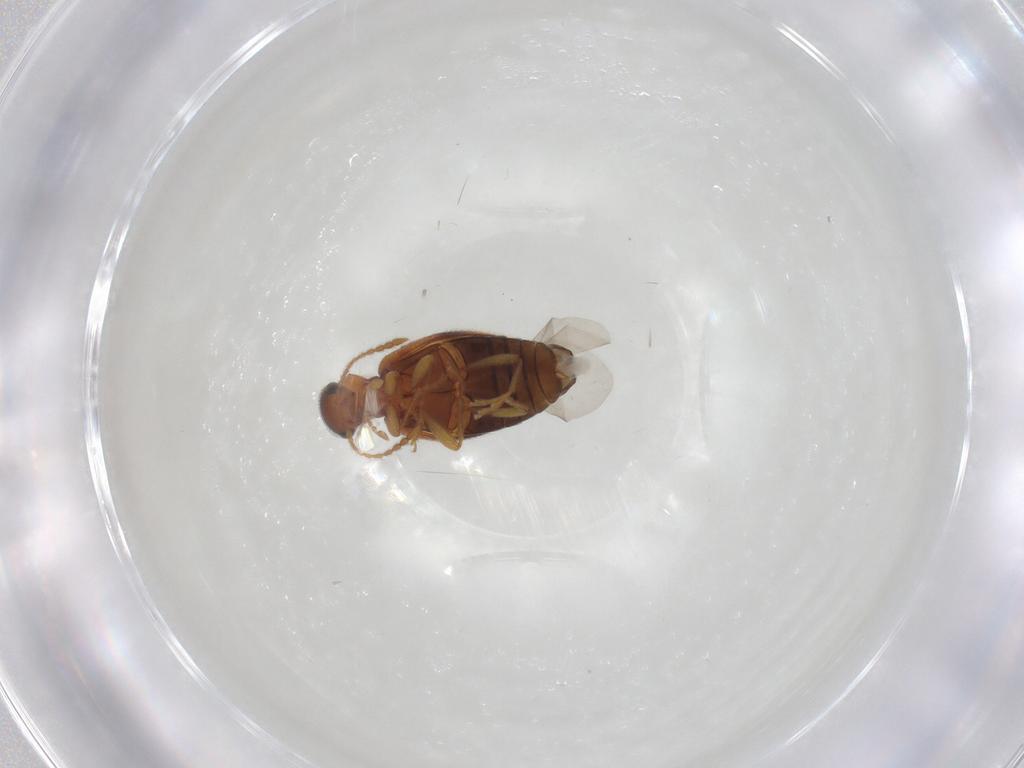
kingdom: Animalia
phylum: Arthropoda
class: Insecta
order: Coleoptera
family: Anthicidae
